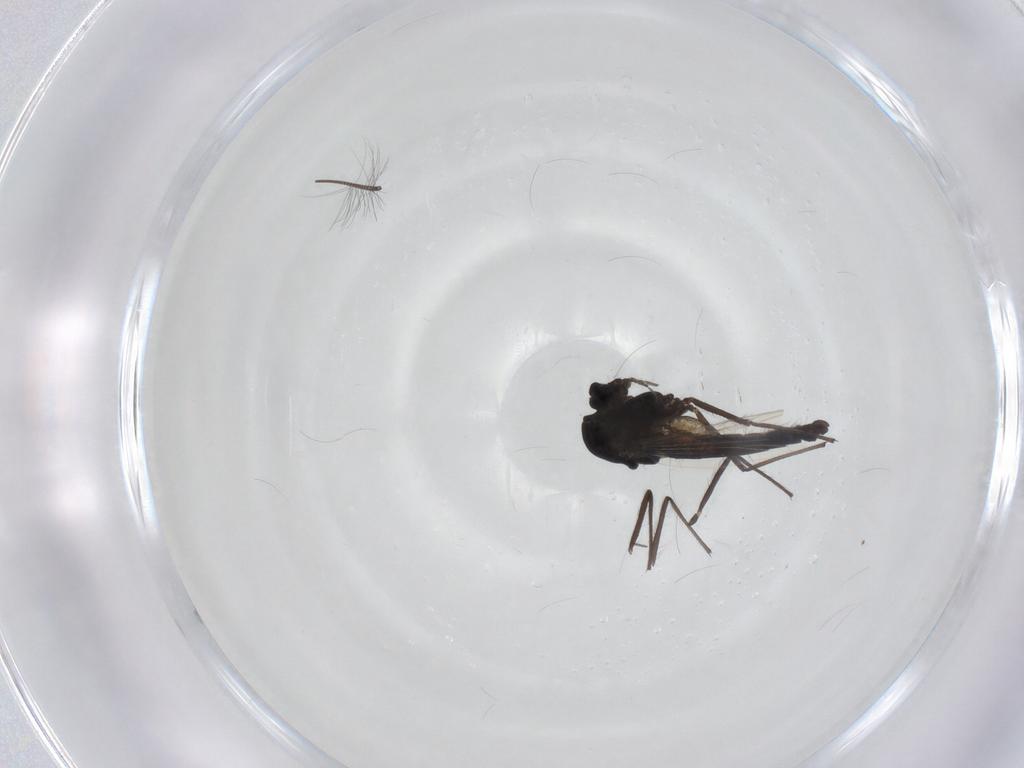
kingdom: Animalia
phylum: Arthropoda
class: Insecta
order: Diptera
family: Chironomidae
